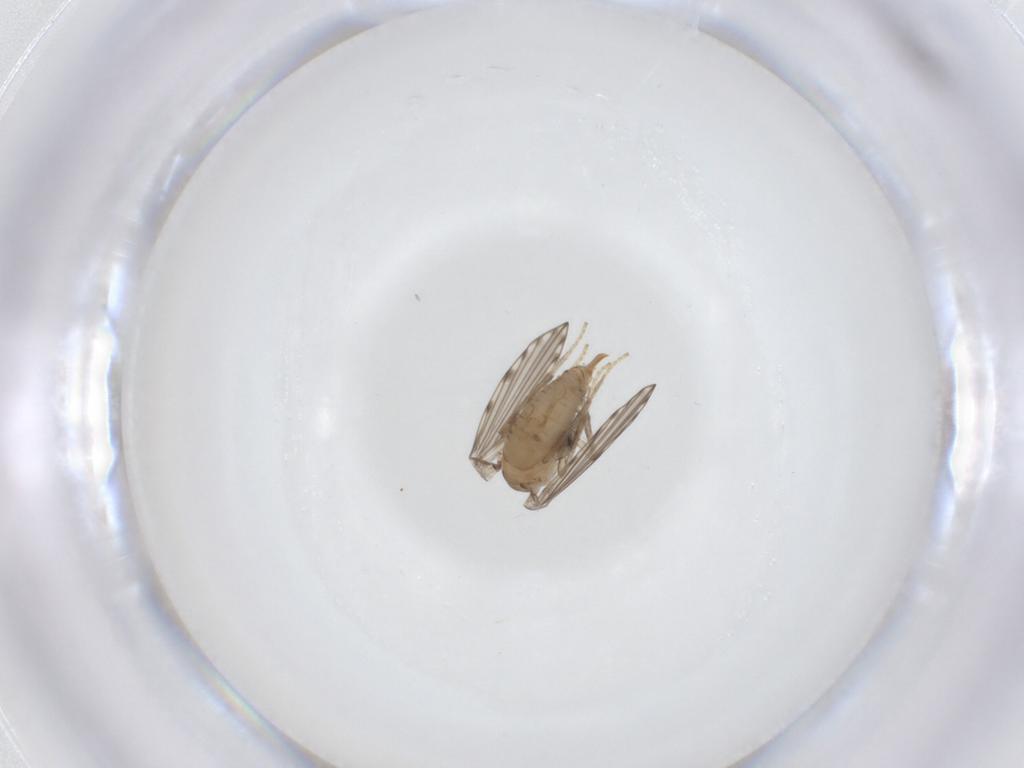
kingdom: Animalia
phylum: Arthropoda
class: Insecta
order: Diptera
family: Psychodidae
